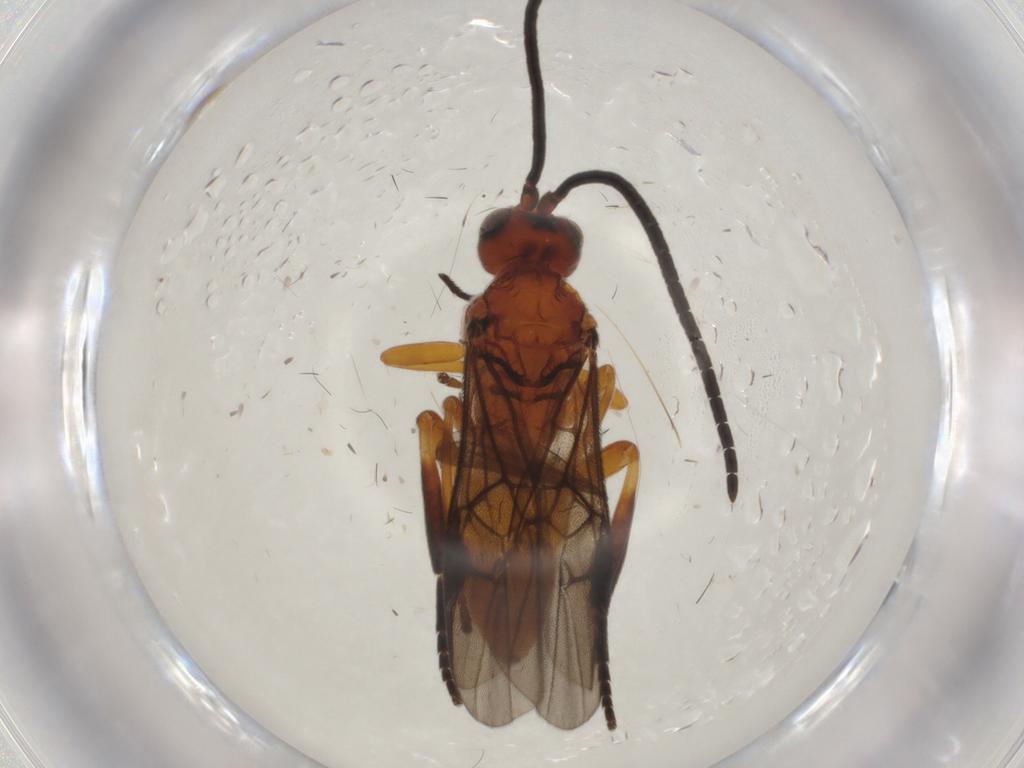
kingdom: Animalia
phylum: Arthropoda
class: Insecta
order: Hymenoptera
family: Braconidae
